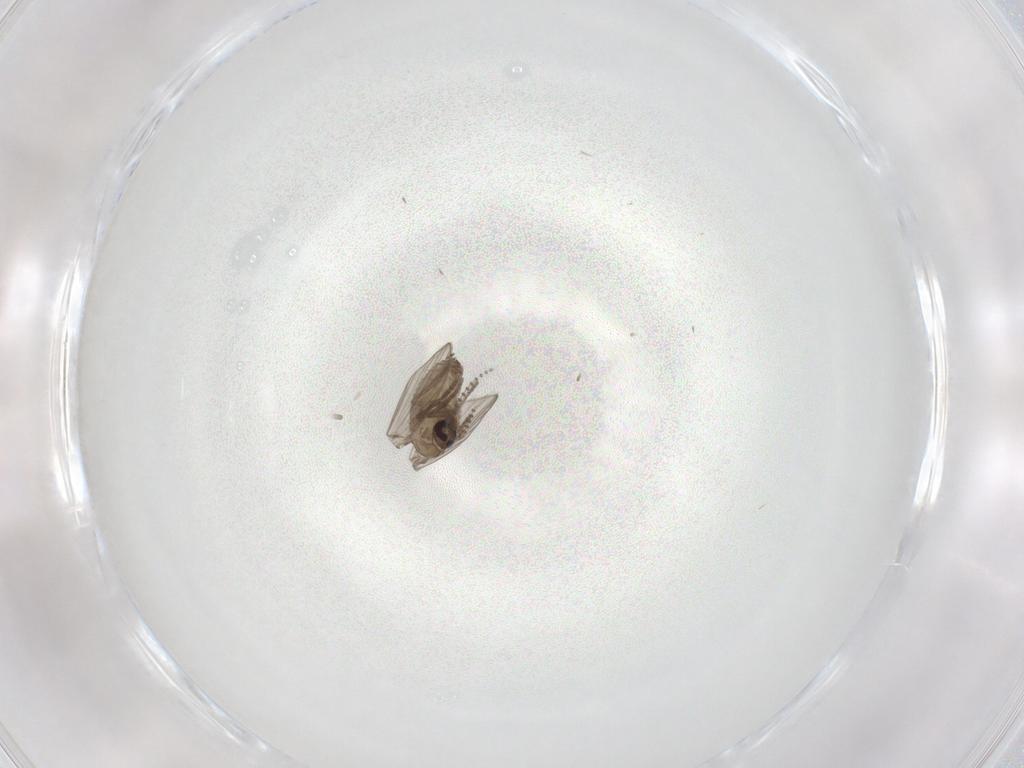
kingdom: Animalia
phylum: Arthropoda
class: Insecta
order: Diptera
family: Psychodidae
